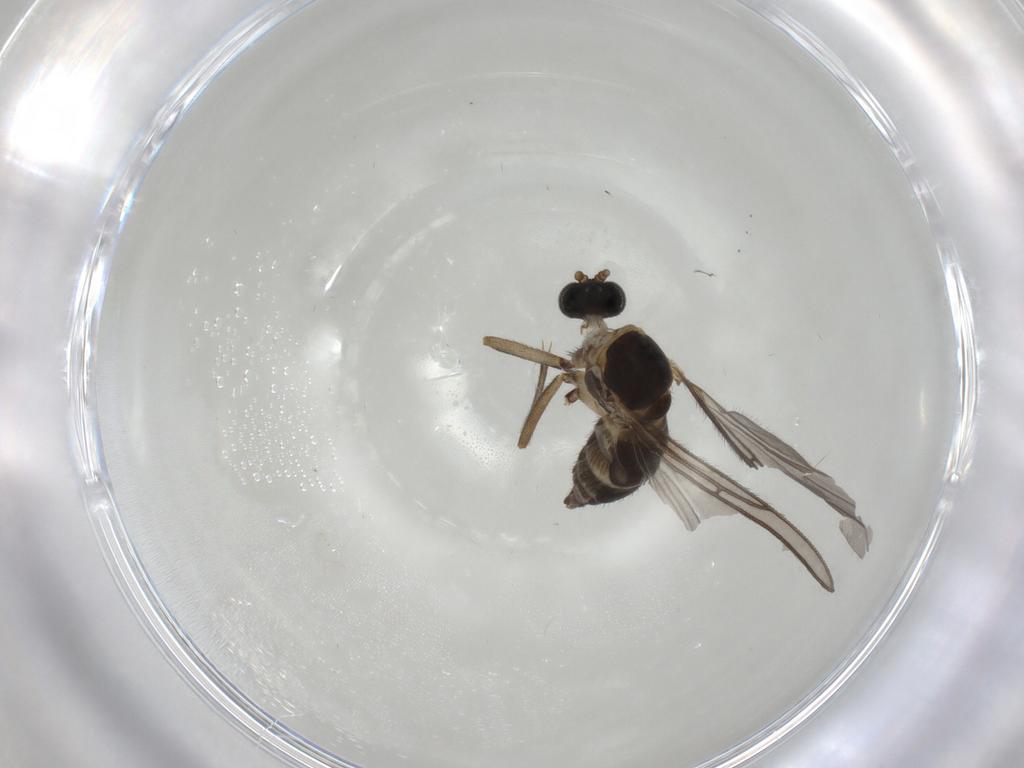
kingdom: Animalia
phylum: Arthropoda
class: Insecta
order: Diptera
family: Sciaridae
